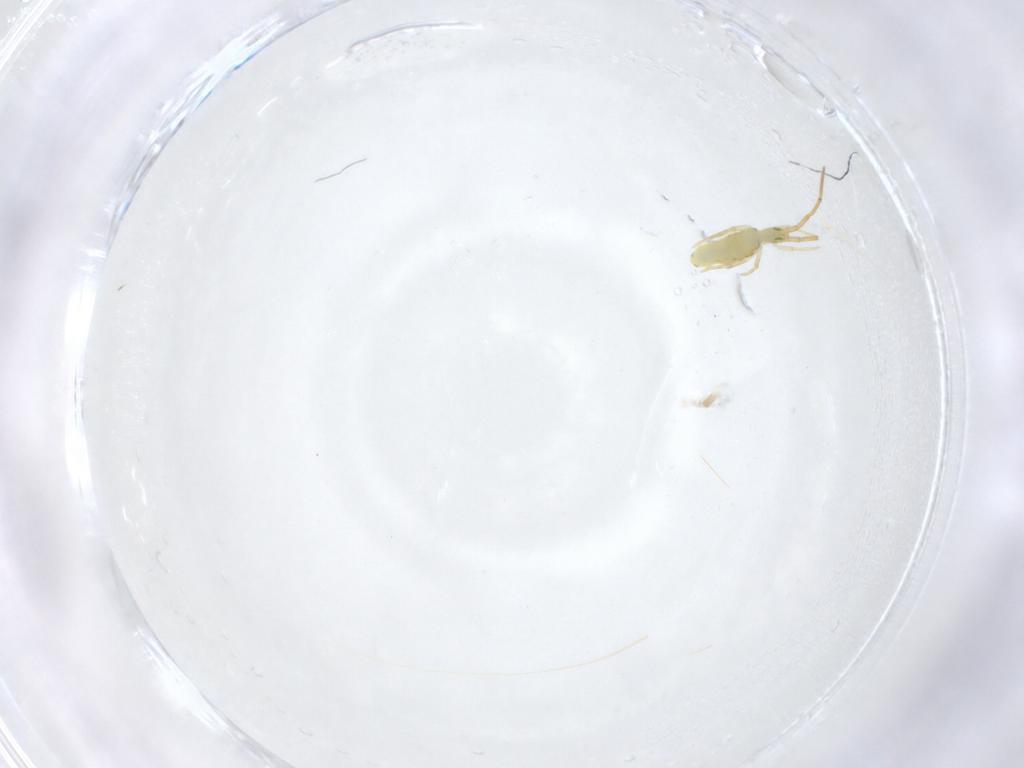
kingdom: Animalia
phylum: Arthropoda
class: Collembola
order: Entomobryomorpha
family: Entomobryidae
